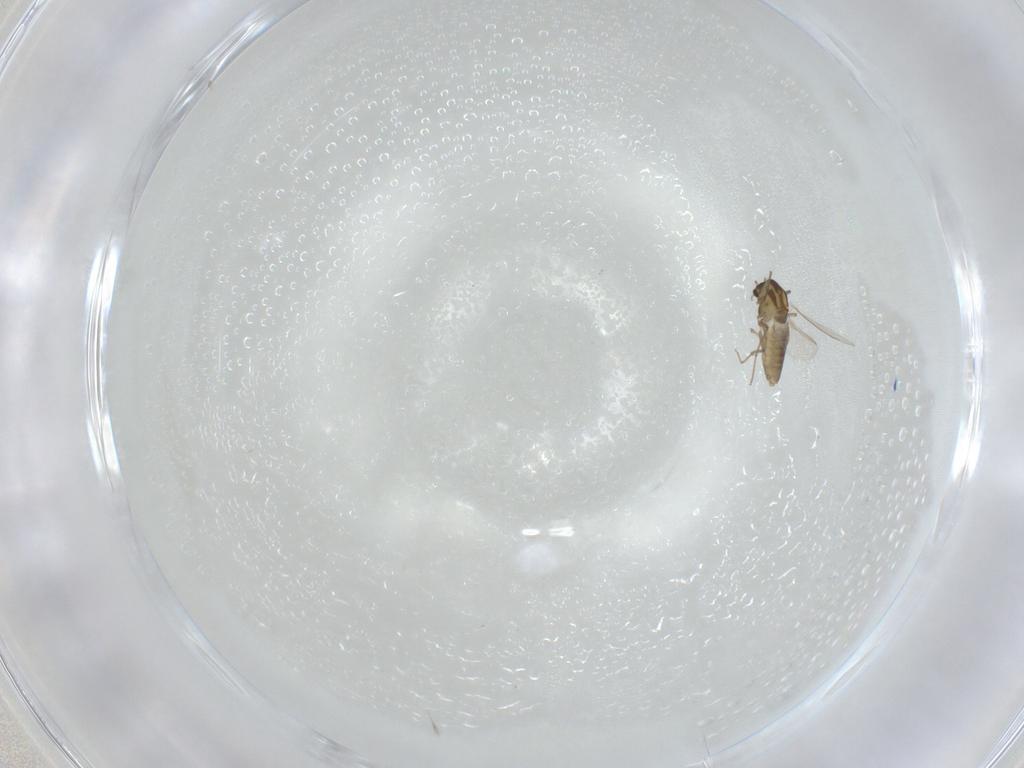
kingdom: Animalia
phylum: Arthropoda
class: Insecta
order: Diptera
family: Chironomidae
